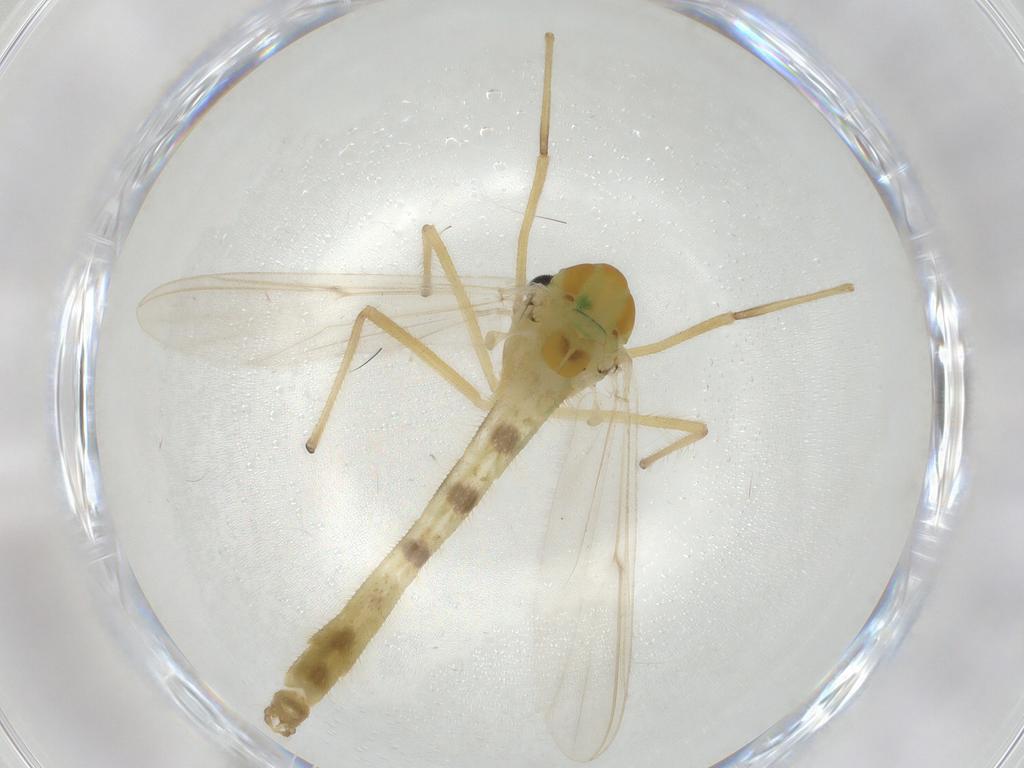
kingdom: Animalia
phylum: Arthropoda
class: Insecta
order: Diptera
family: Chironomidae
